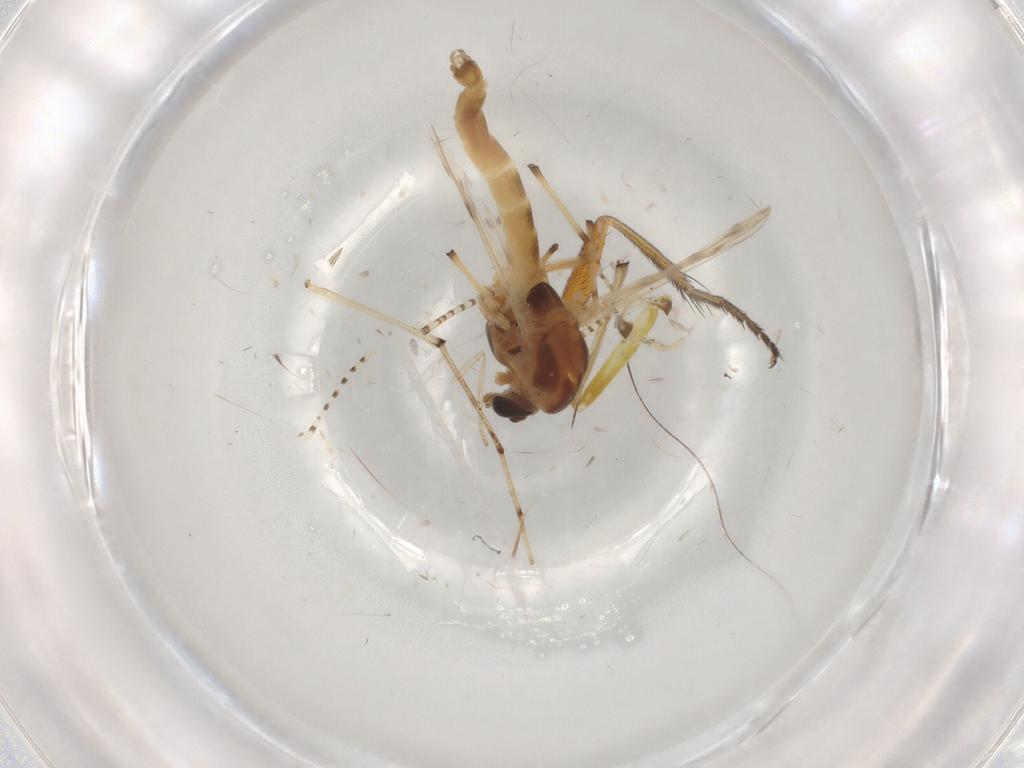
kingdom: Animalia
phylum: Arthropoda
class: Insecta
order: Diptera
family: Chironomidae
